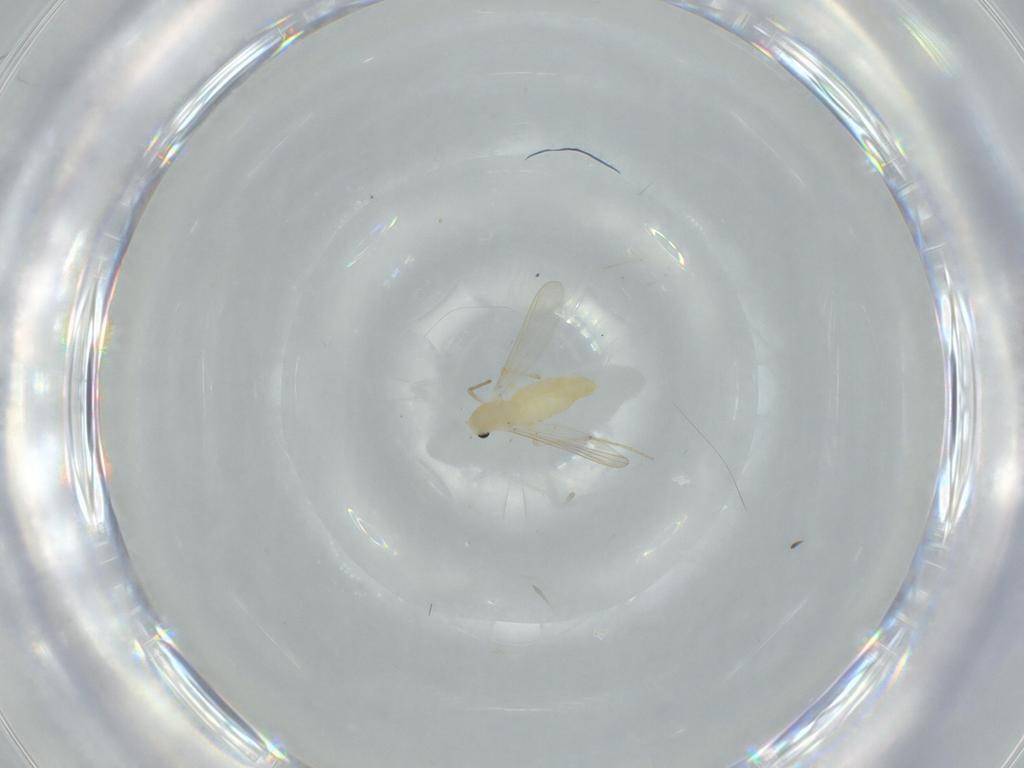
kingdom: Animalia
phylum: Arthropoda
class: Insecta
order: Diptera
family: Chironomidae
